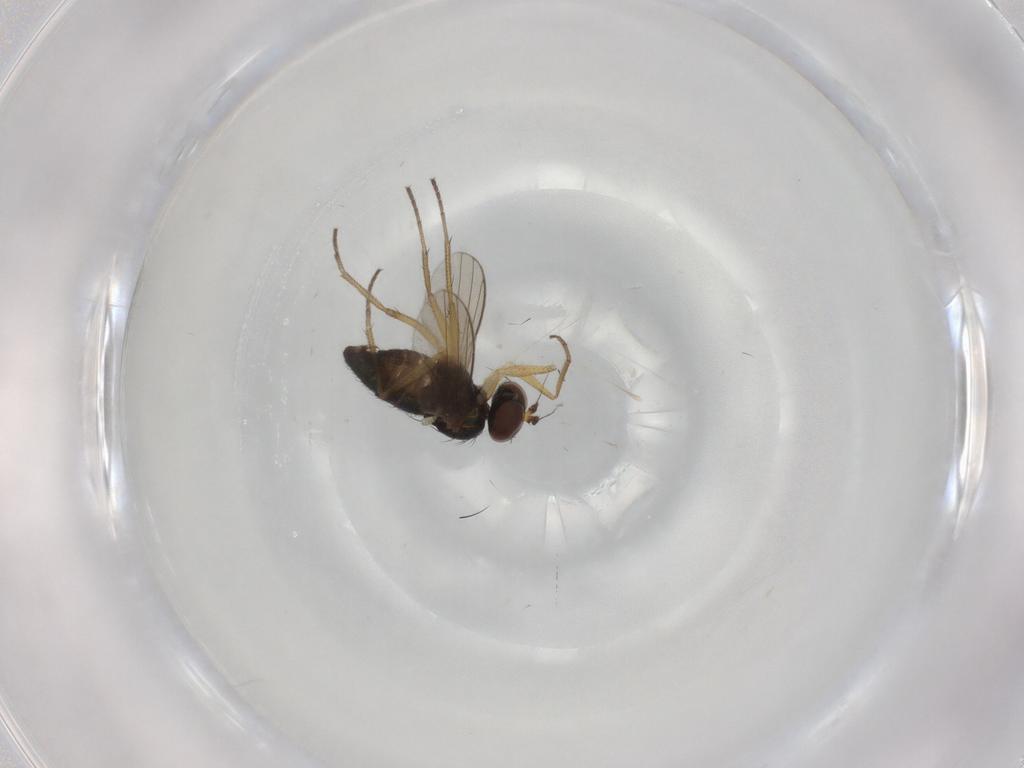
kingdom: Animalia
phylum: Arthropoda
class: Insecta
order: Diptera
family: Dolichopodidae
